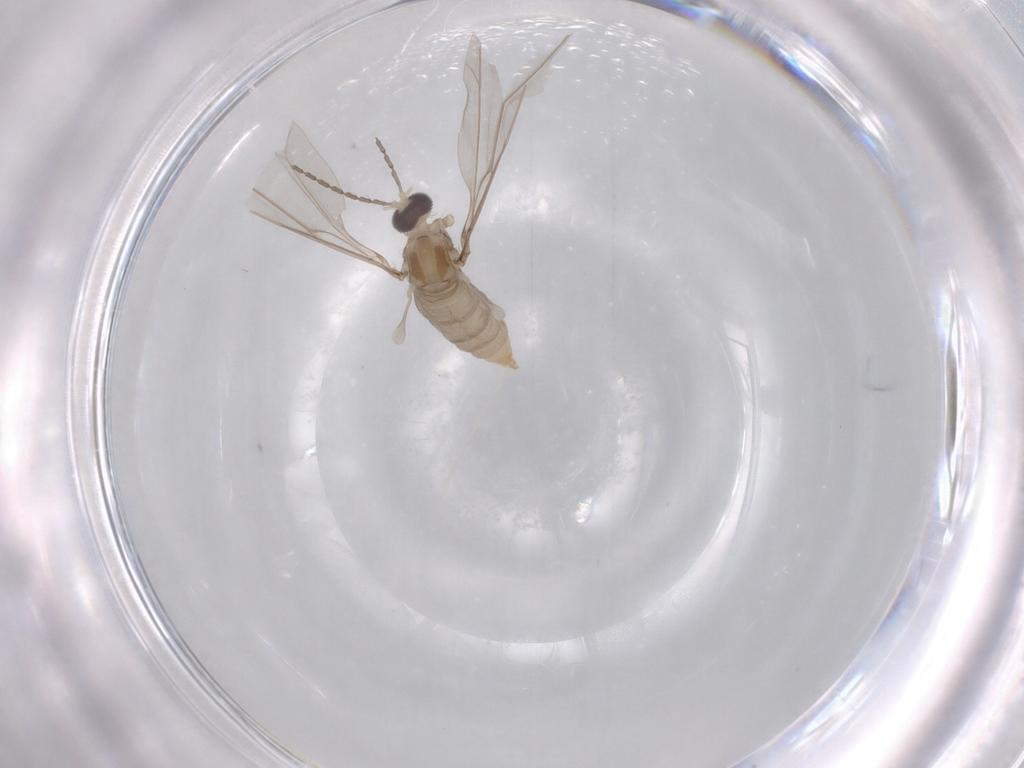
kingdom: Animalia
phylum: Arthropoda
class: Insecta
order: Diptera
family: Cecidomyiidae
